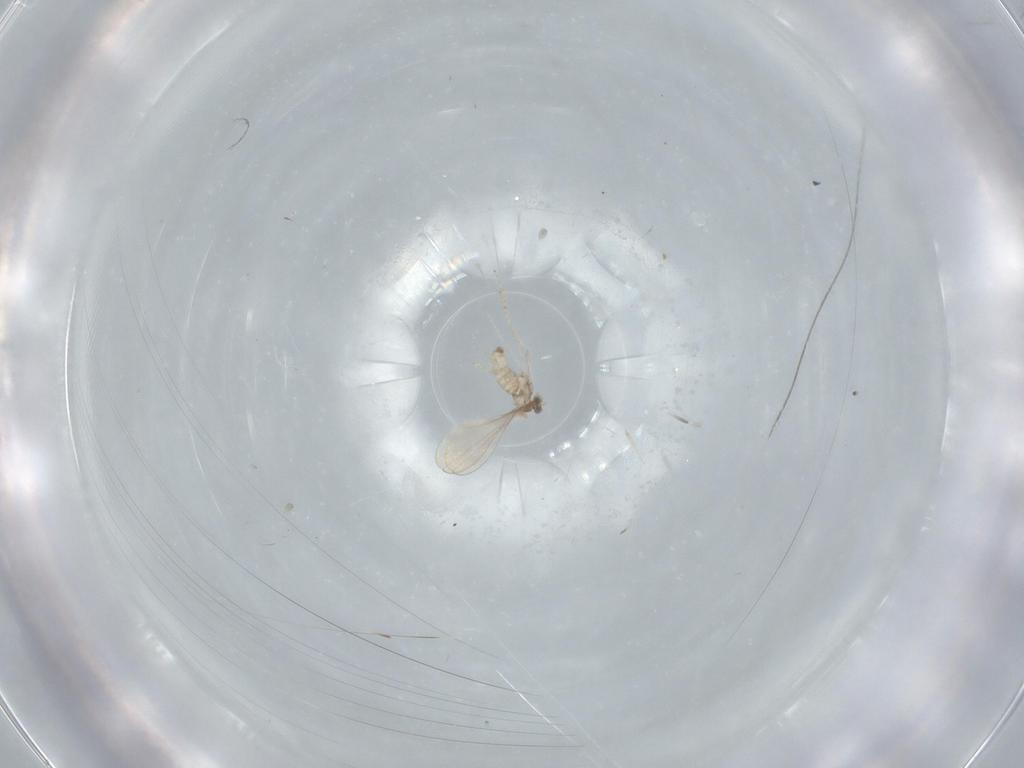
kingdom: Animalia
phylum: Arthropoda
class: Insecta
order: Diptera
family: Cecidomyiidae
